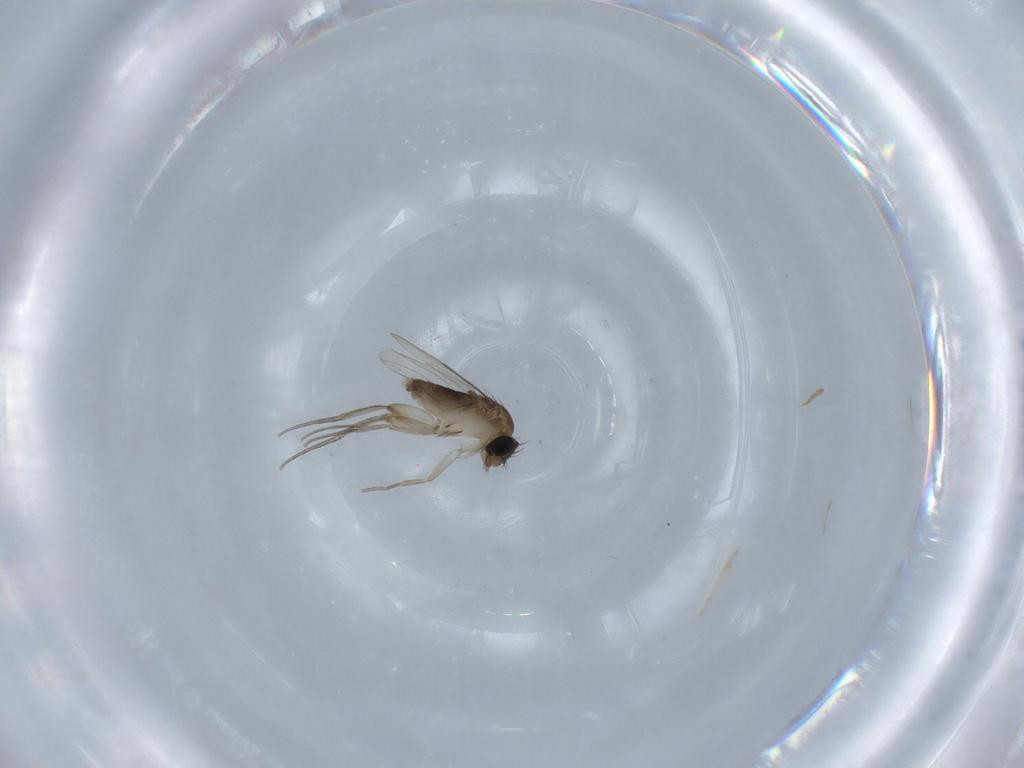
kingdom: Animalia
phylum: Arthropoda
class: Insecta
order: Diptera
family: Phoridae
